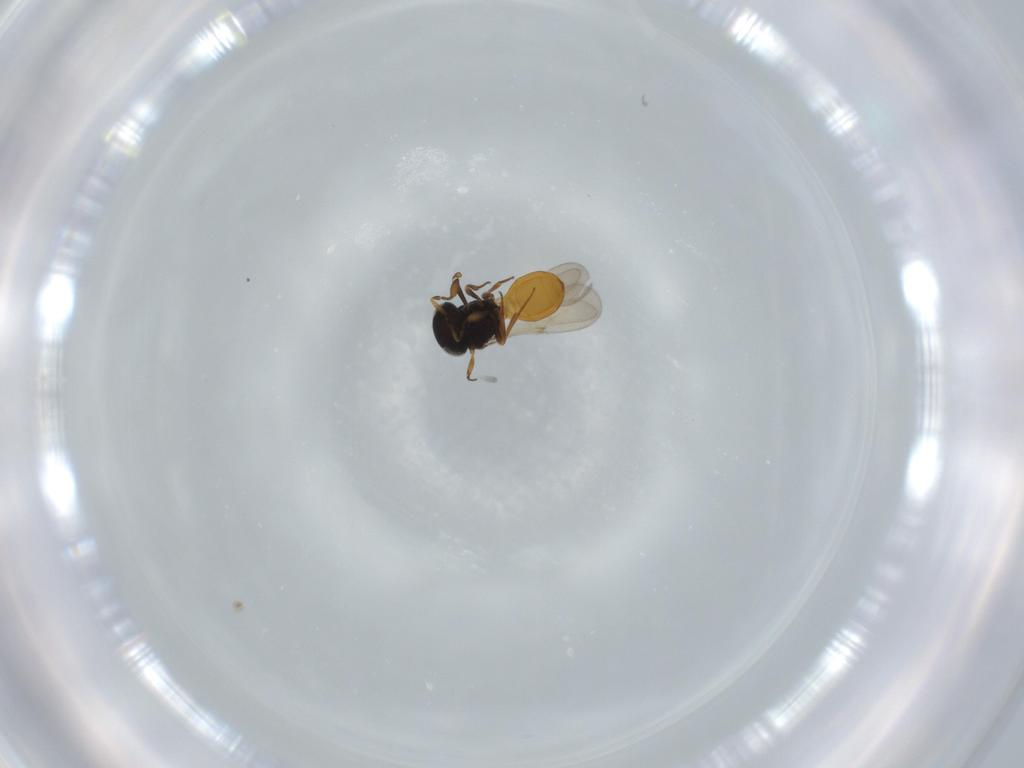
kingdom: Animalia
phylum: Arthropoda
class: Insecta
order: Hymenoptera
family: Scelionidae
